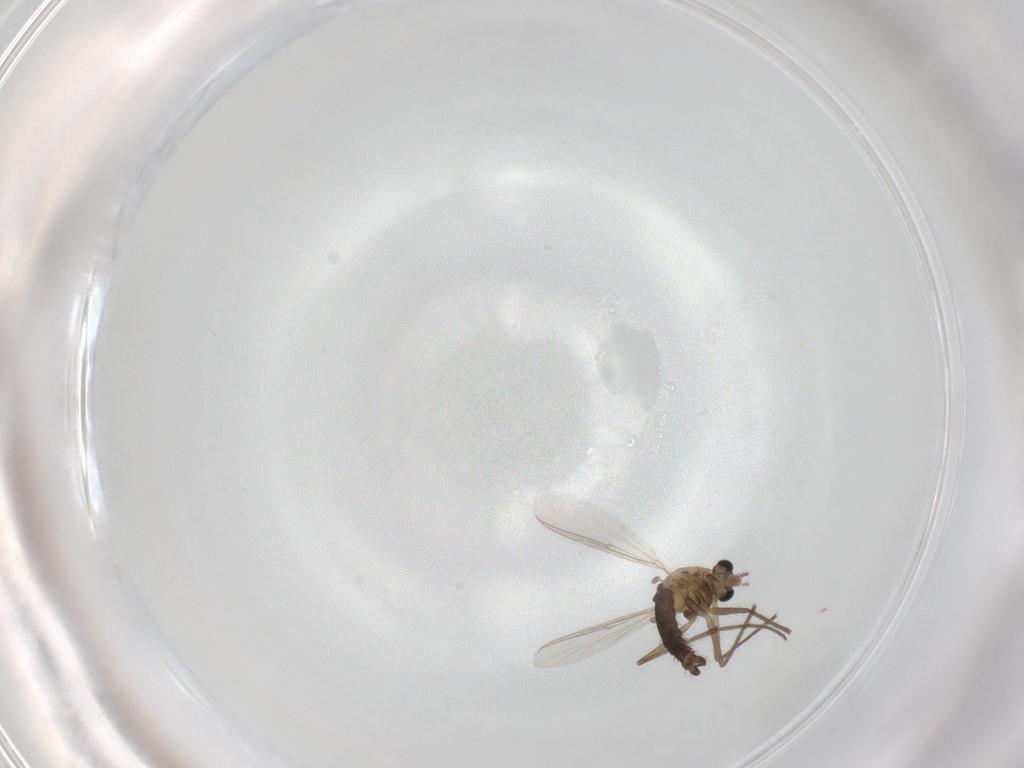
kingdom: Animalia
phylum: Arthropoda
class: Insecta
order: Diptera
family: Chironomidae
